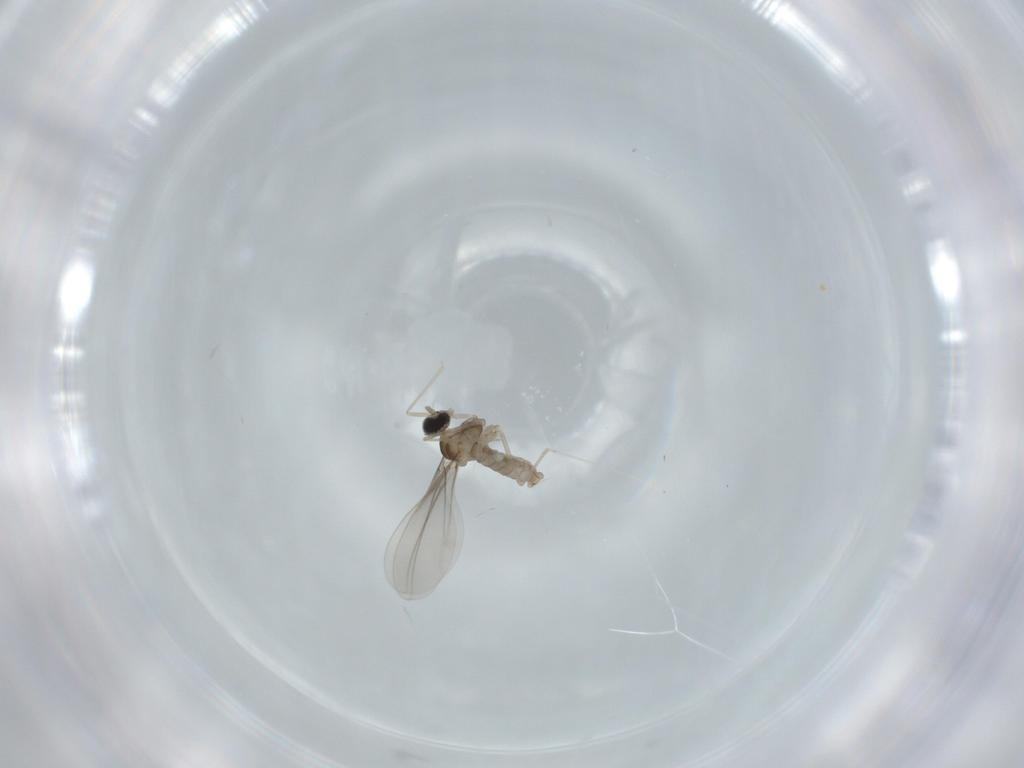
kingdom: Animalia
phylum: Arthropoda
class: Insecta
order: Diptera
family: Cecidomyiidae
